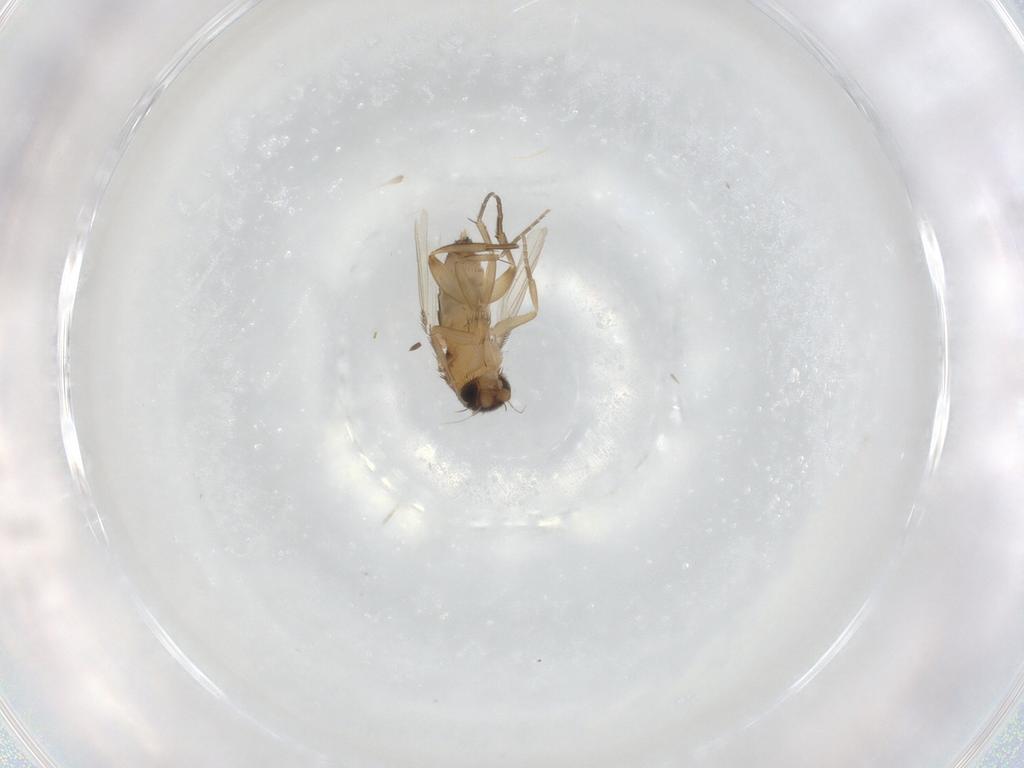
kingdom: Animalia
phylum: Arthropoda
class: Insecta
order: Diptera
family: Phoridae
